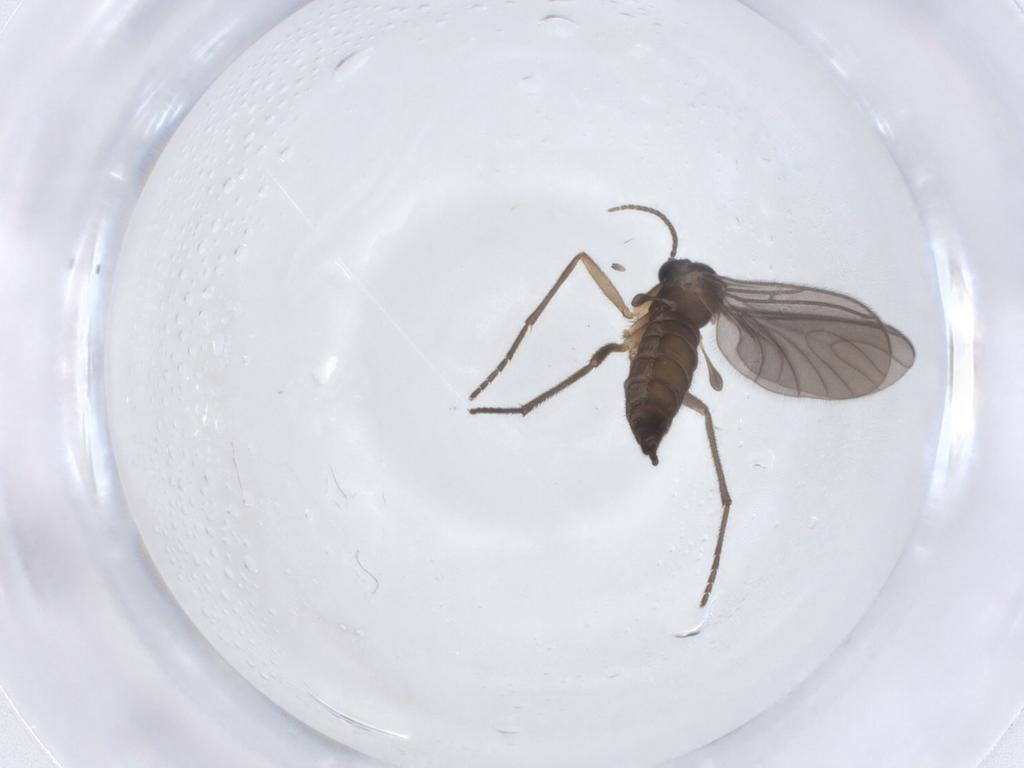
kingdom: Animalia
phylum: Arthropoda
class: Insecta
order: Diptera
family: Sciaridae
